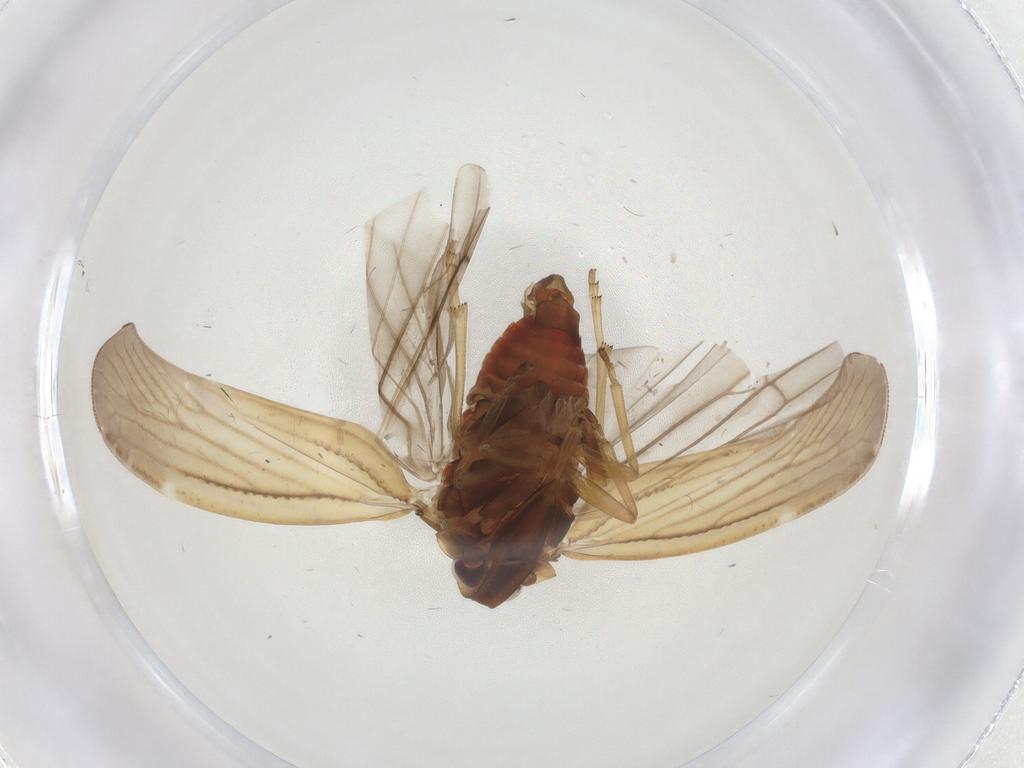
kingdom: Animalia
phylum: Arthropoda
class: Insecta
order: Hemiptera
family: Derbidae
